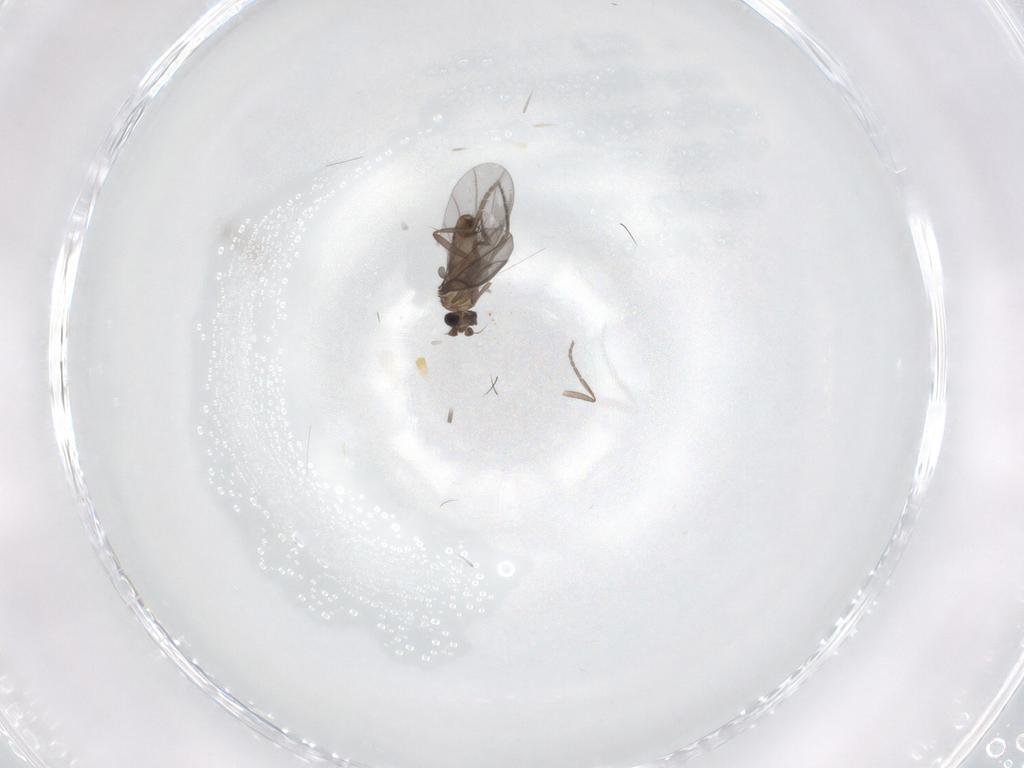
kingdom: Animalia
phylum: Arthropoda
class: Insecta
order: Diptera
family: Phoridae
